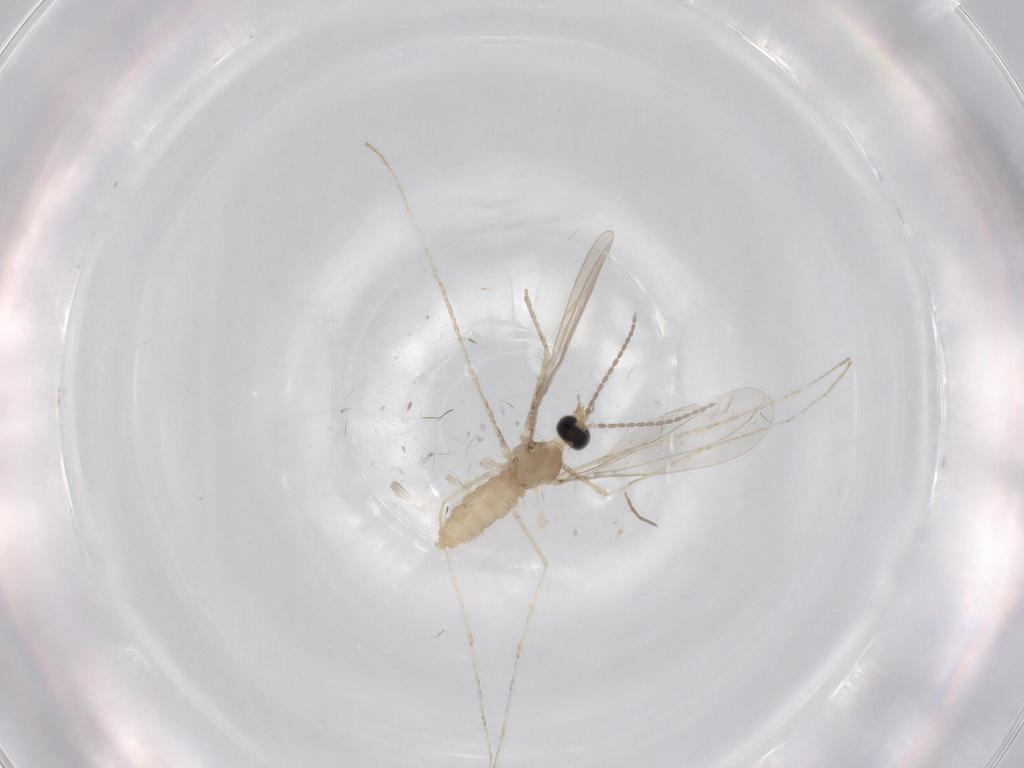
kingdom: Animalia
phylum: Arthropoda
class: Insecta
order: Diptera
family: Cecidomyiidae
